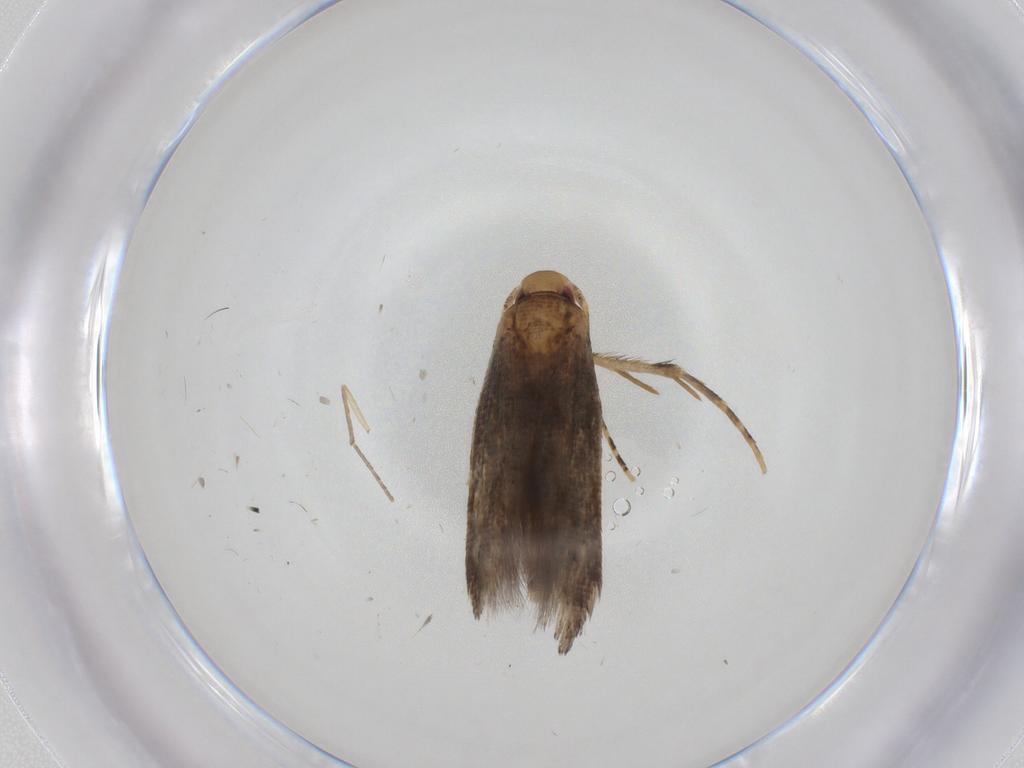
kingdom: Animalia
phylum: Arthropoda
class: Insecta
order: Lepidoptera
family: Momphidae
